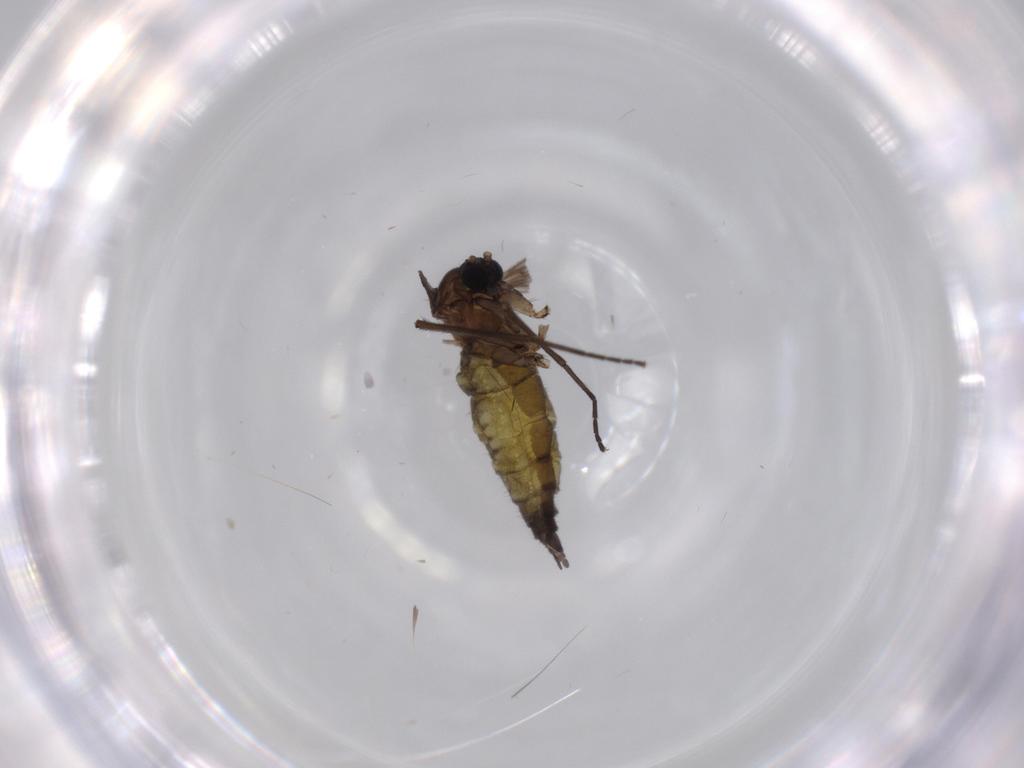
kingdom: Animalia
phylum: Arthropoda
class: Insecta
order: Diptera
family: Sciaridae
